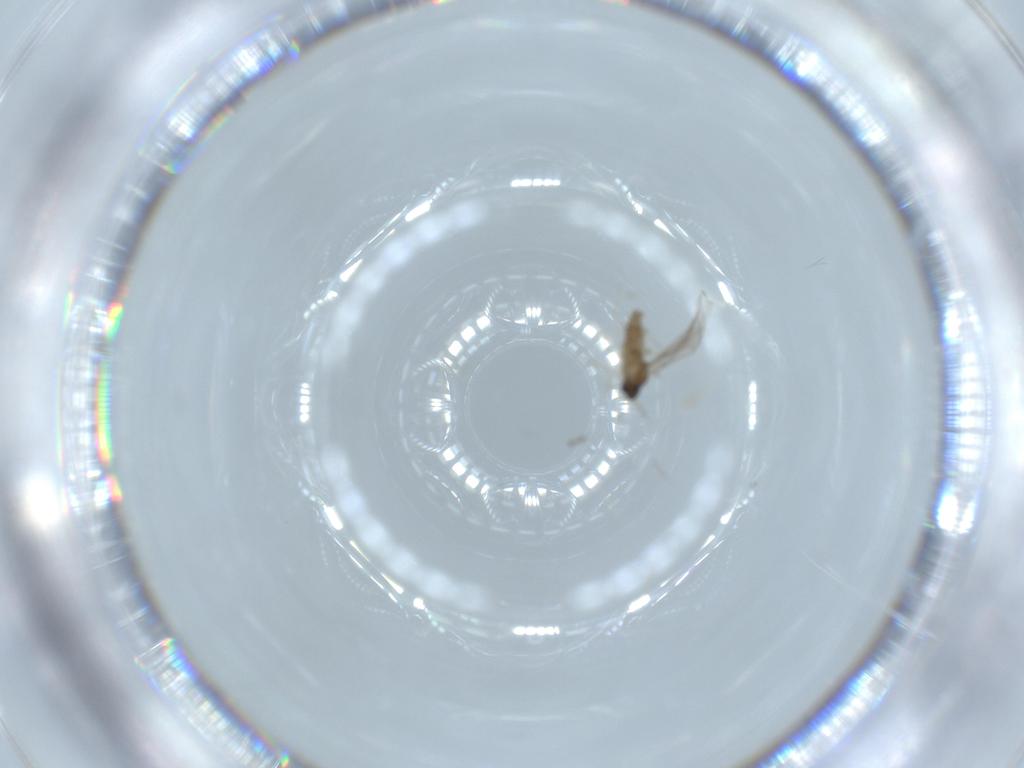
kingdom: Animalia
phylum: Arthropoda
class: Insecta
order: Diptera
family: Cecidomyiidae
